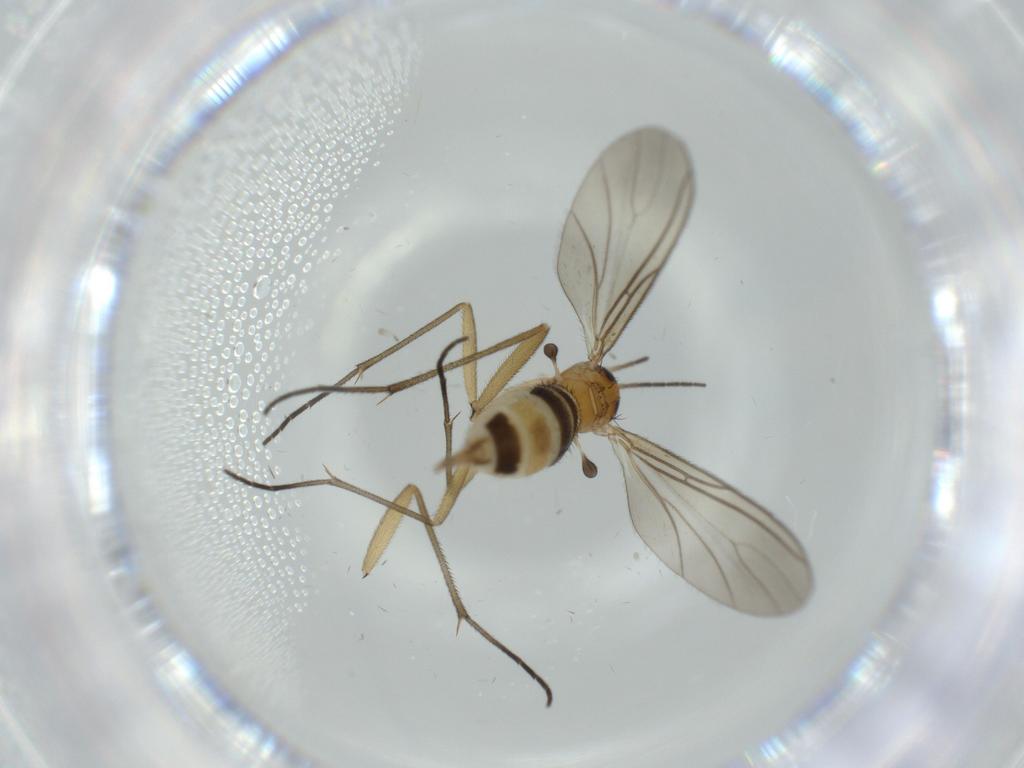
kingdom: Animalia
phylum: Arthropoda
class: Insecta
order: Diptera
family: Sciaridae
